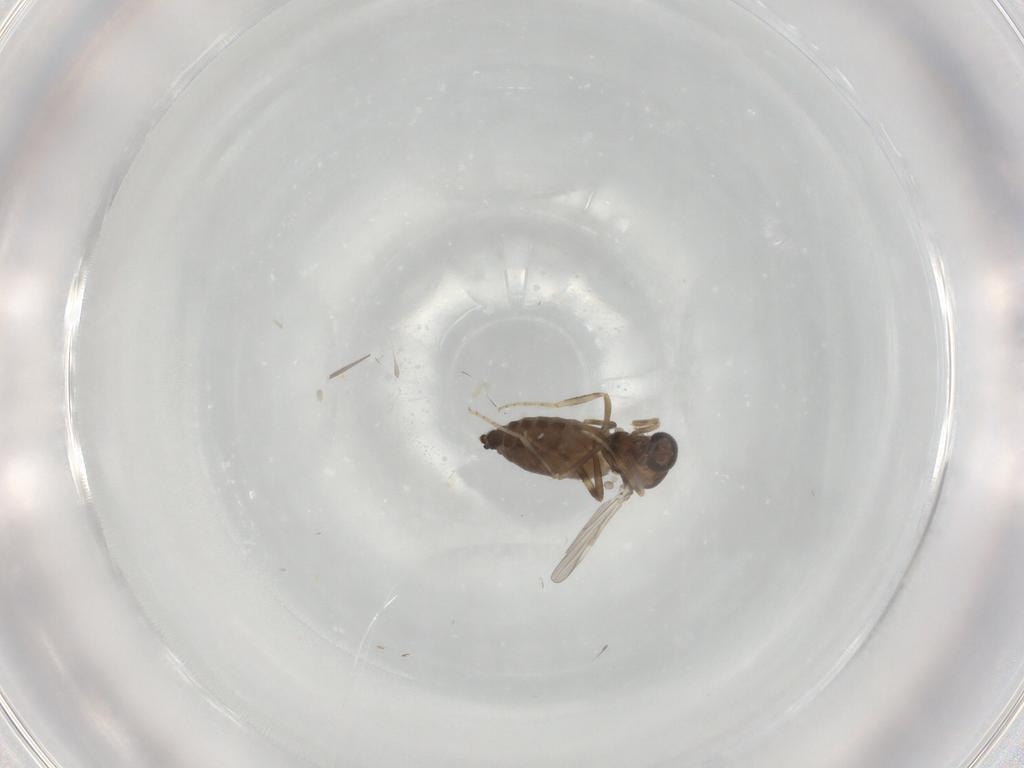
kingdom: Animalia
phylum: Arthropoda
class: Insecta
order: Diptera
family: Ceratopogonidae
